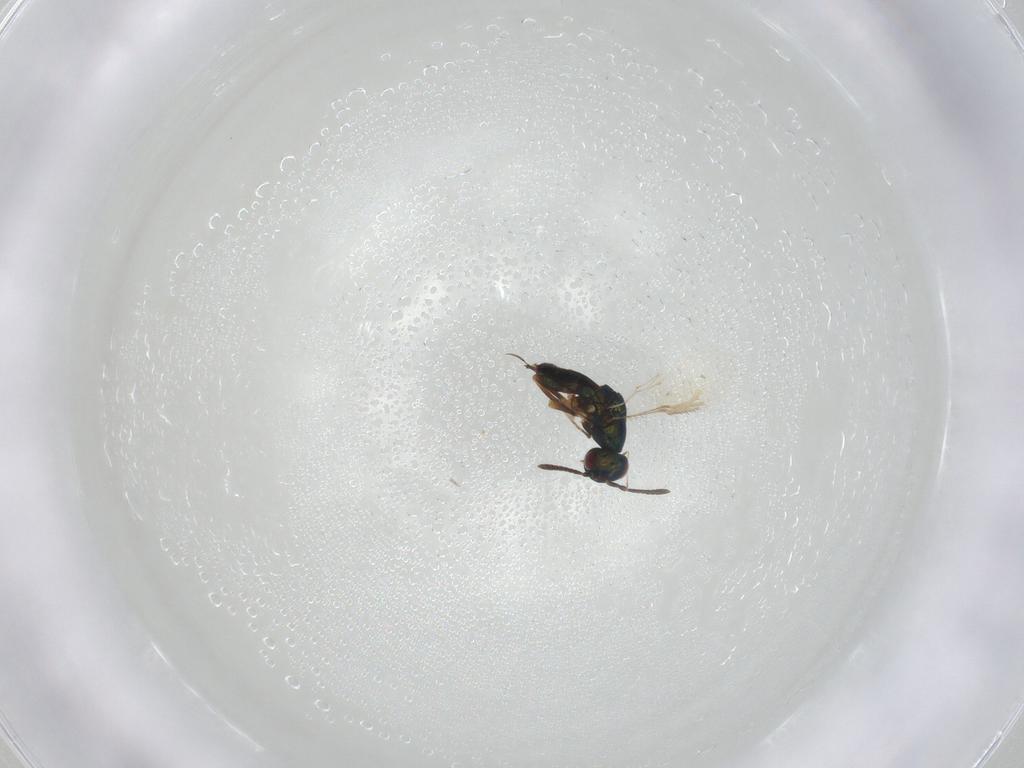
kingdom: Animalia
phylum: Arthropoda
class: Insecta
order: Hymenoptera
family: Pteromalidae
